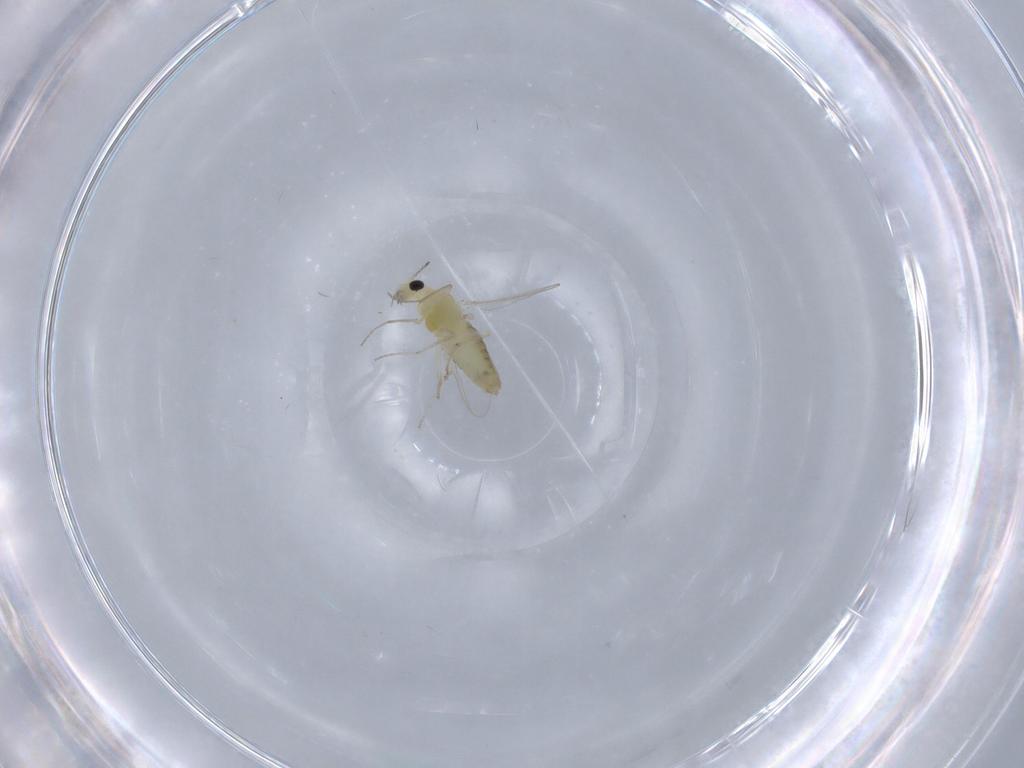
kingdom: Animalia
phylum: Arthropoda
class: Insecta
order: Diptera
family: Chironomidae
